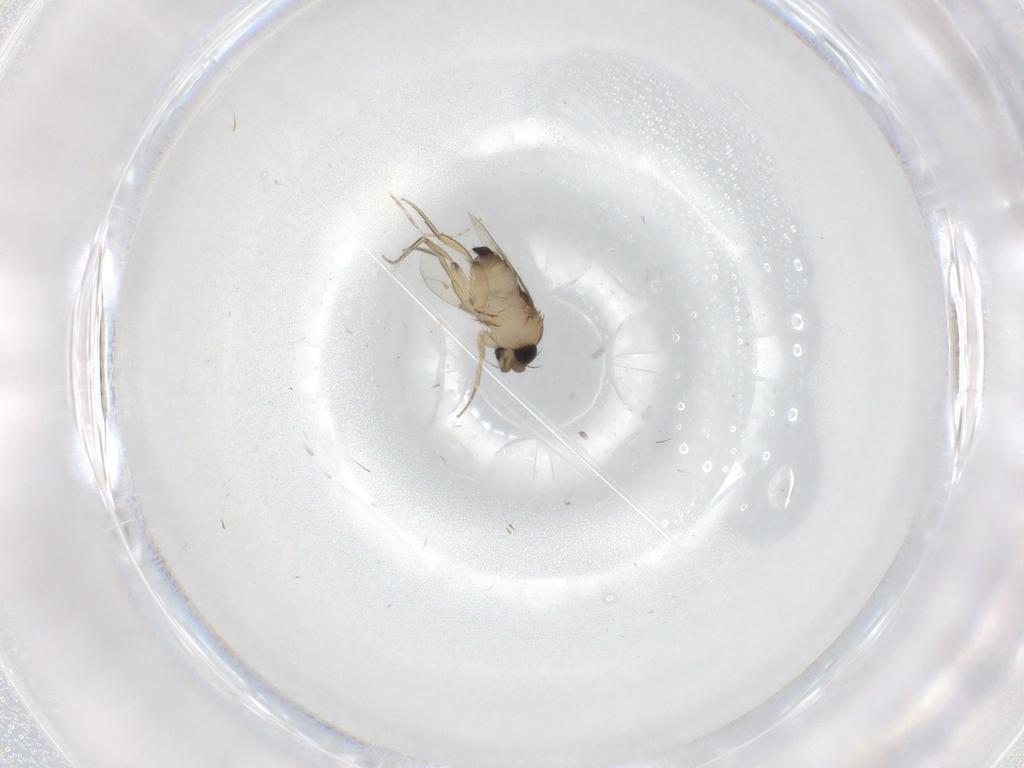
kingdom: Animalia
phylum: Arthropoda
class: Insecta
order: Diptera
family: Phoridae
